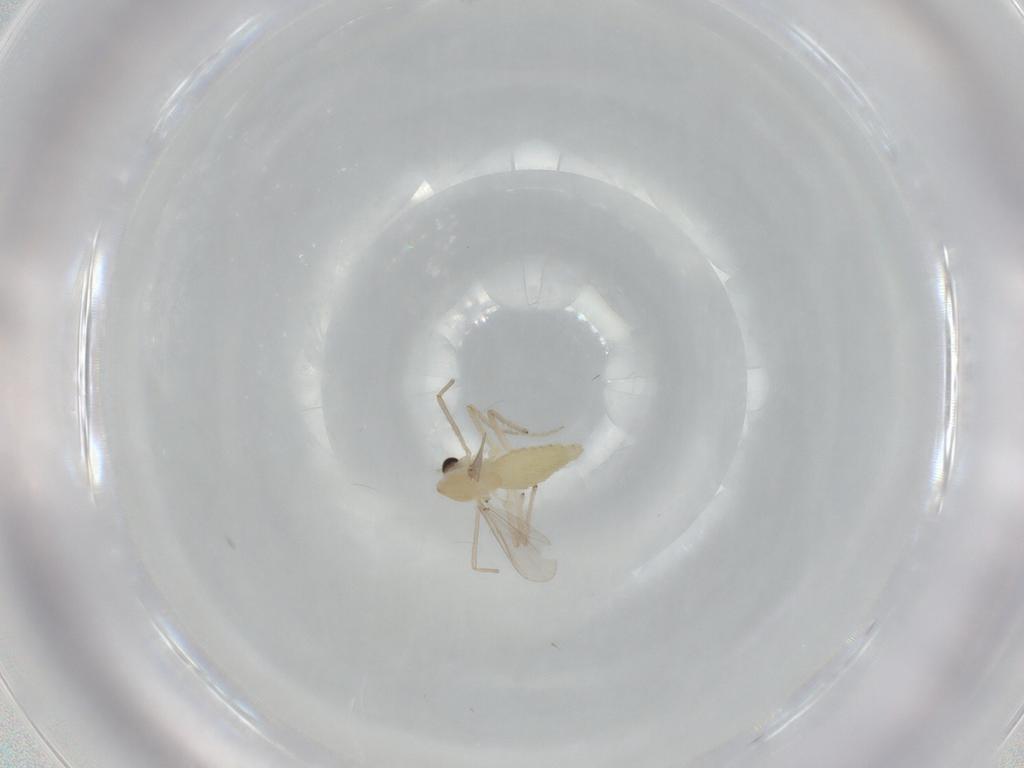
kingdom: Animalia
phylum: Arthropoda
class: Insecta
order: Diptera
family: Chironomidae
